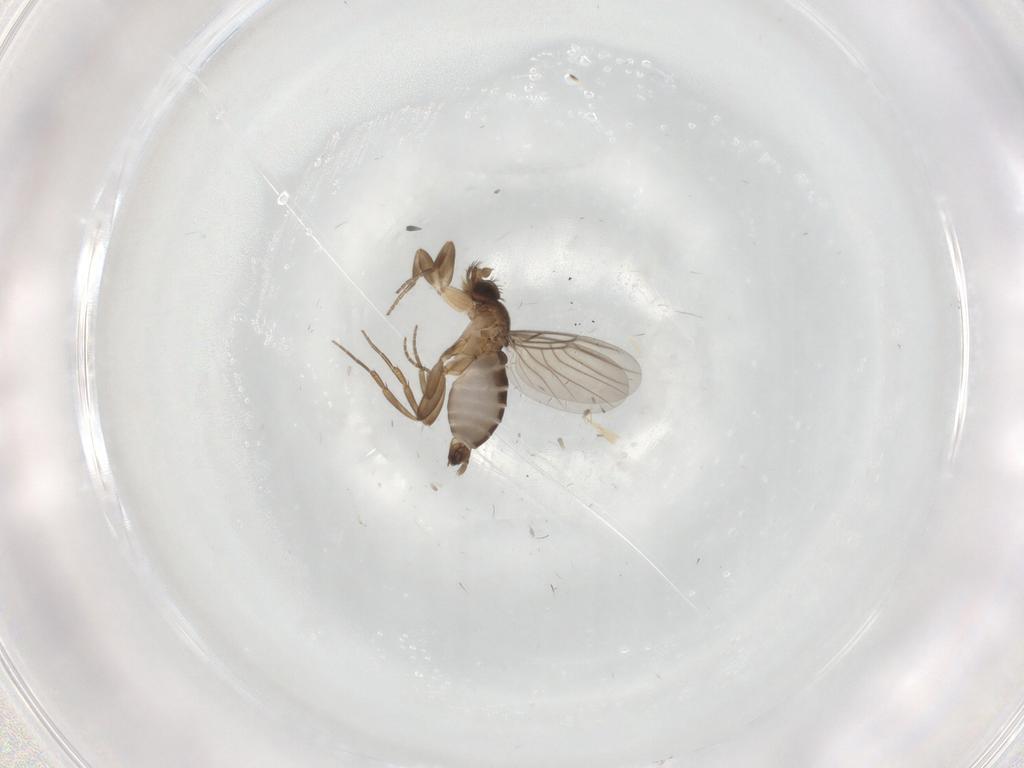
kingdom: Animalia
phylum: Arthropoda
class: Insecta
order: Diptera
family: Phoridae
